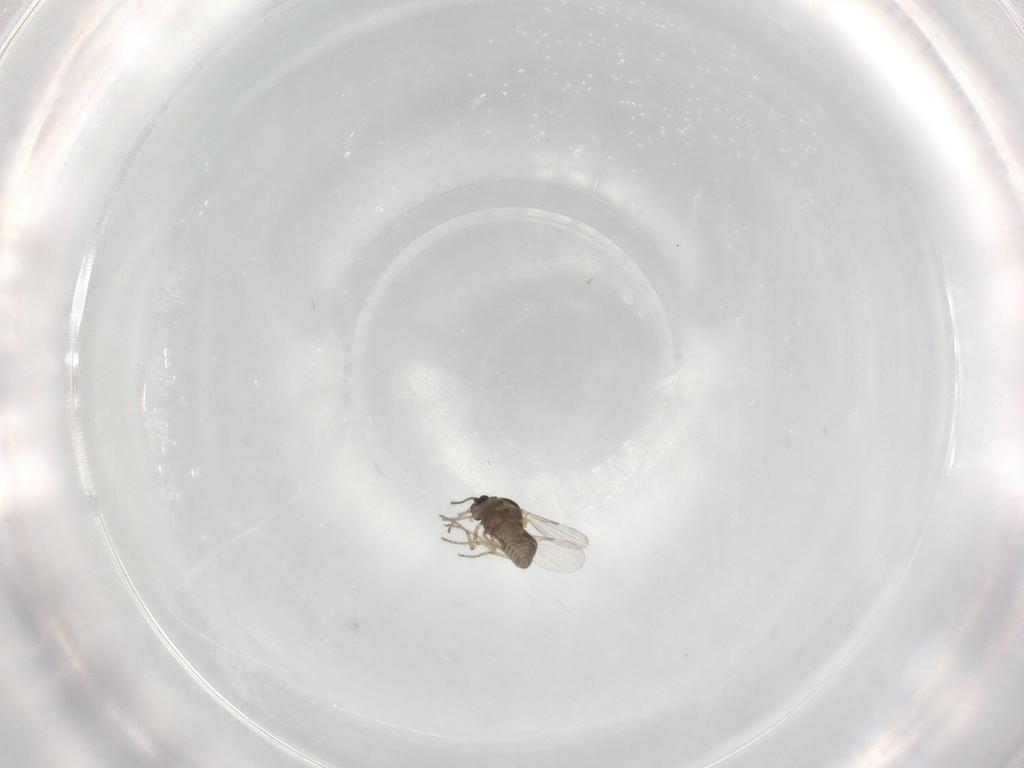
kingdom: Animalia
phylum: Arthropoda
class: Insecta
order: Diptera
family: Ceratopogonidae
